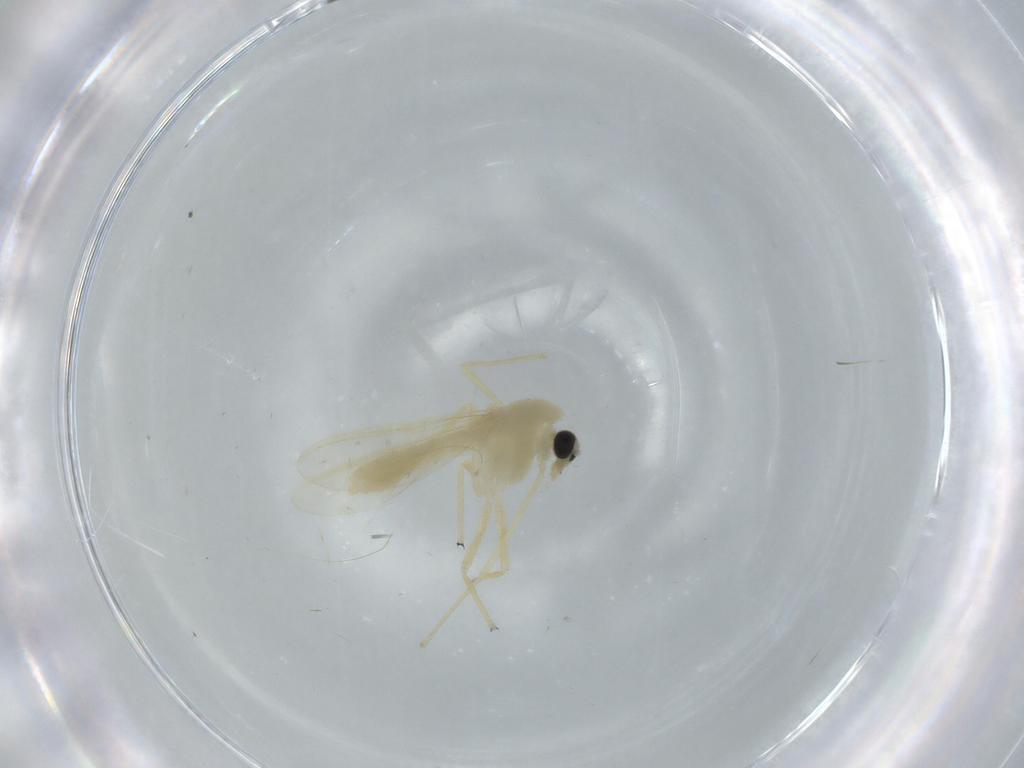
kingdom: Animalia
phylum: Arthropoda
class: Insecta
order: Diptera
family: Chironomidae
